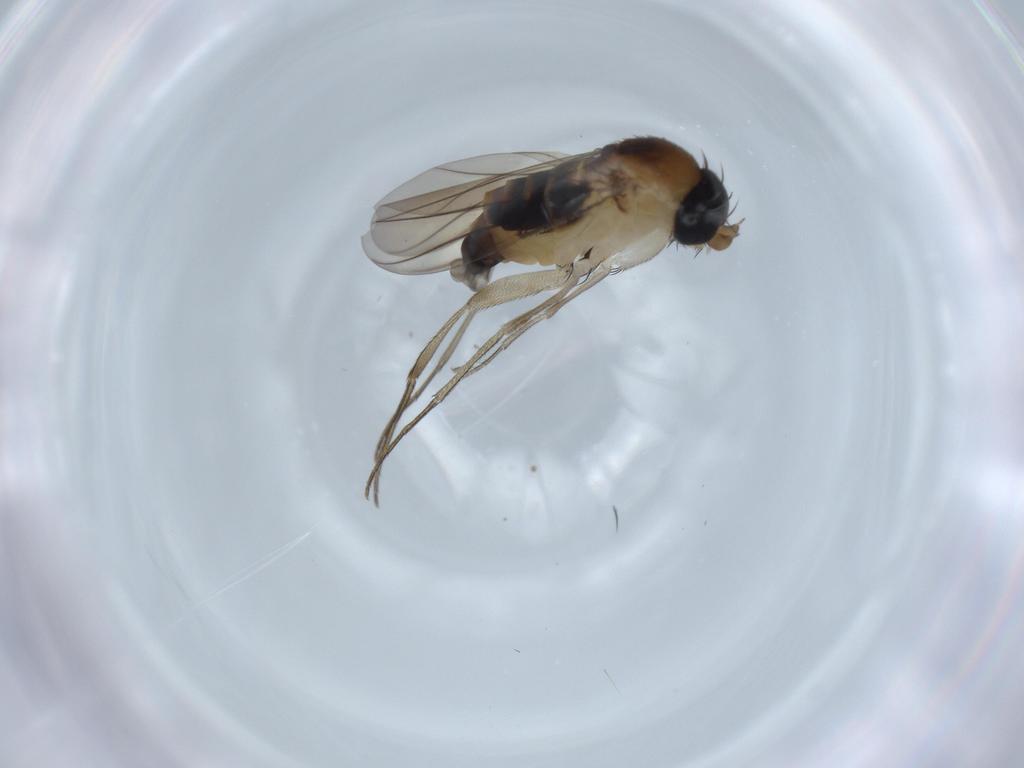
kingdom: Animalia
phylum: Arthropoda
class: Insecta
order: Diptera
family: Phoridae
